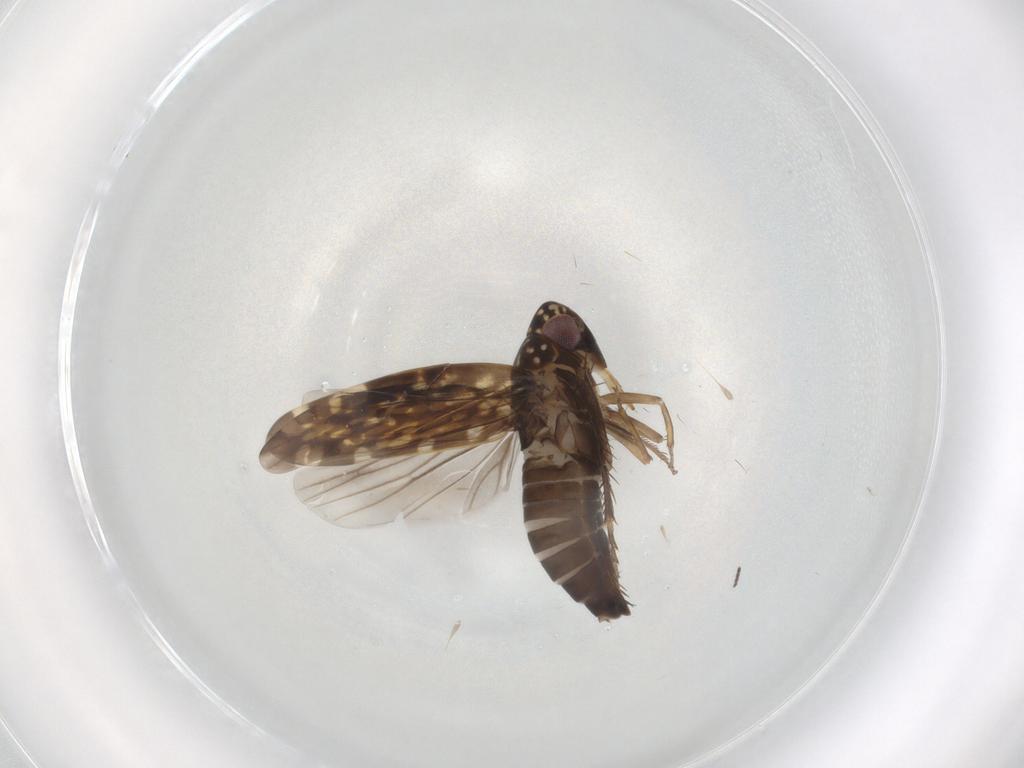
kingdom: Animalia
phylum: Arthropoda
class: Insecta
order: Hemiptera
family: Cicadellidae
